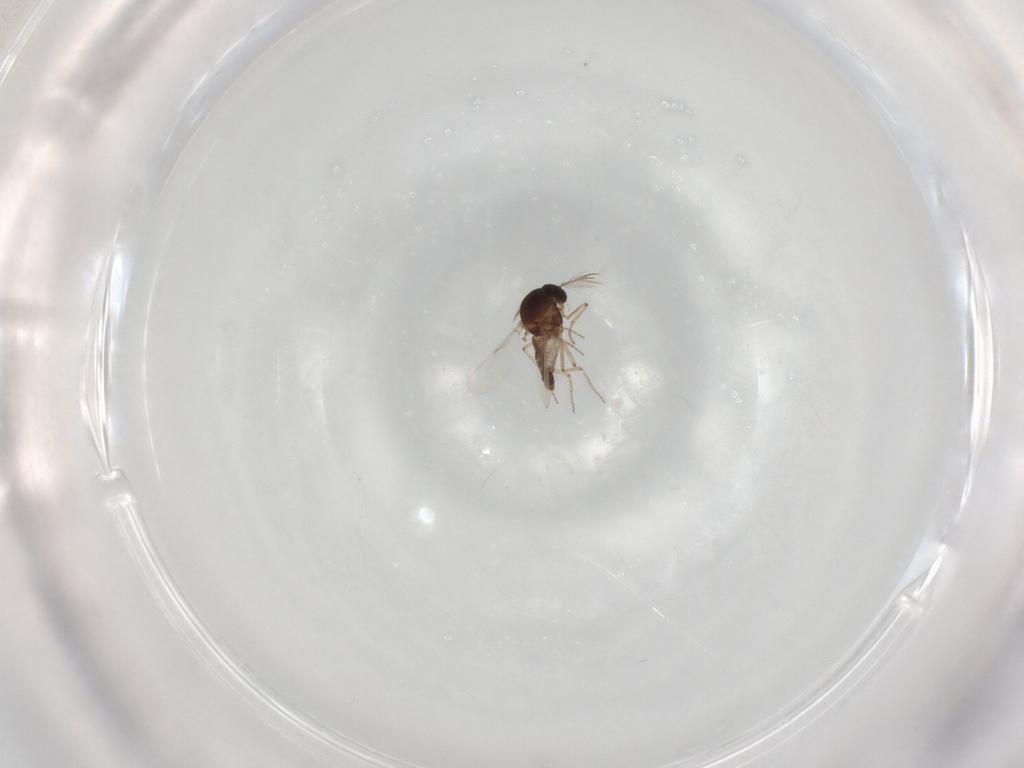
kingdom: Animalia
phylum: Arthropoda
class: Insecta
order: Diptera
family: Ceratopogonidae
